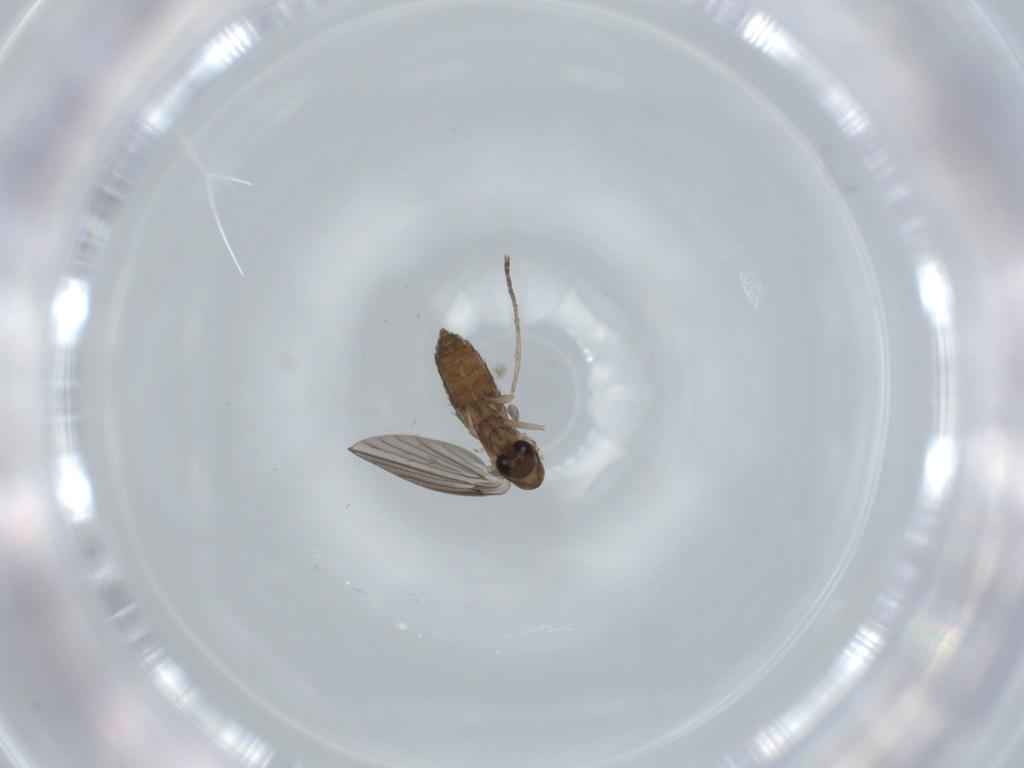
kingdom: Animalia
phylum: Arthropoda
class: Insecta
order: Diptera
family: Psychodidae
